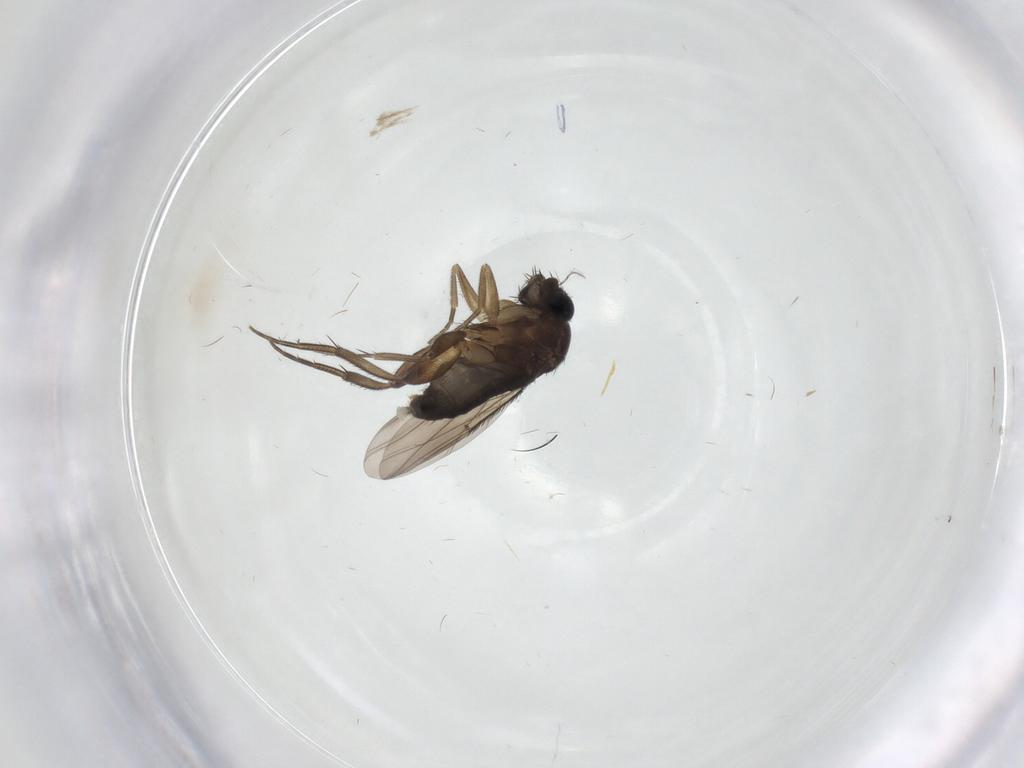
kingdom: Animalia
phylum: Arthropoda
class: Insecta
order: Diptera
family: Phoridae
